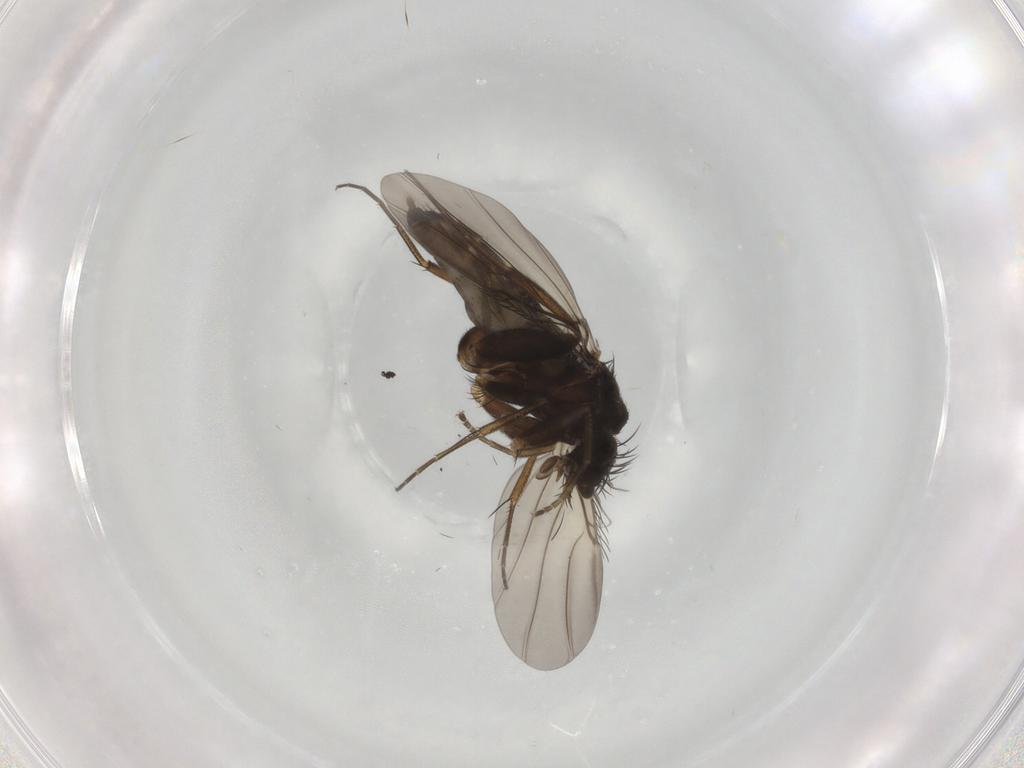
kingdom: Animalia
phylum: Arthropoda
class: Insecta
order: Diptera
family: Phoridae
